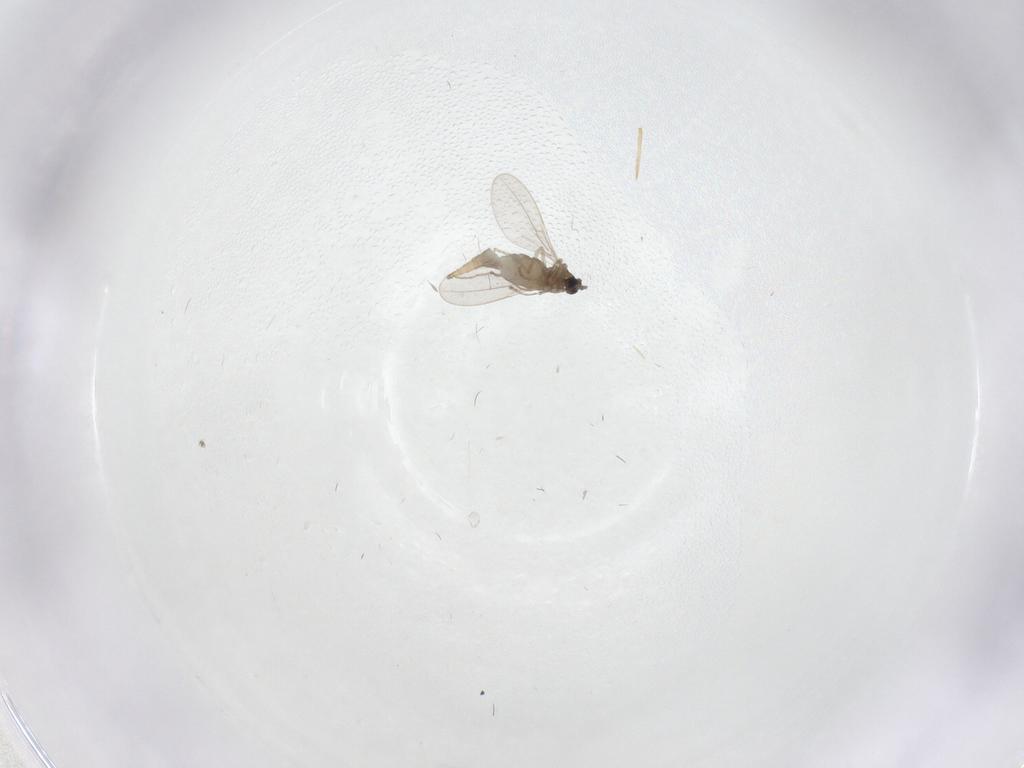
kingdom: Animalia
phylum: Arthropoda
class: Insecta
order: Diptera
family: Cecidomyiidae
